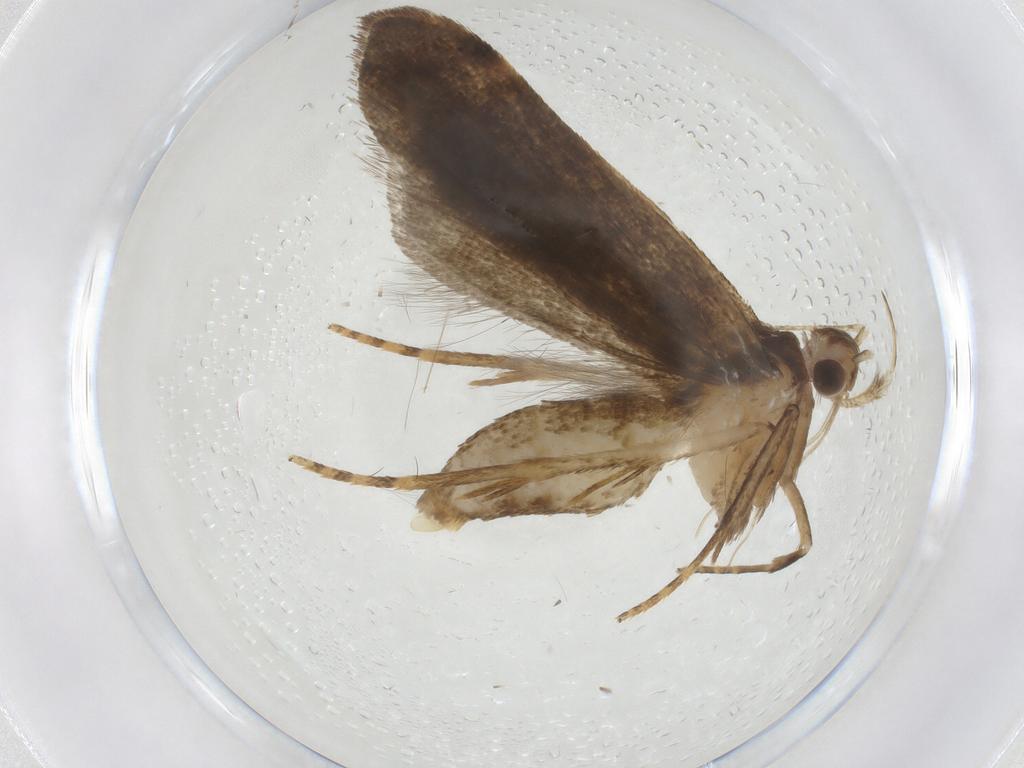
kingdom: Animalia
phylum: Arthropoda
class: Insecta
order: Lepidoptera
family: Gelechiidae
